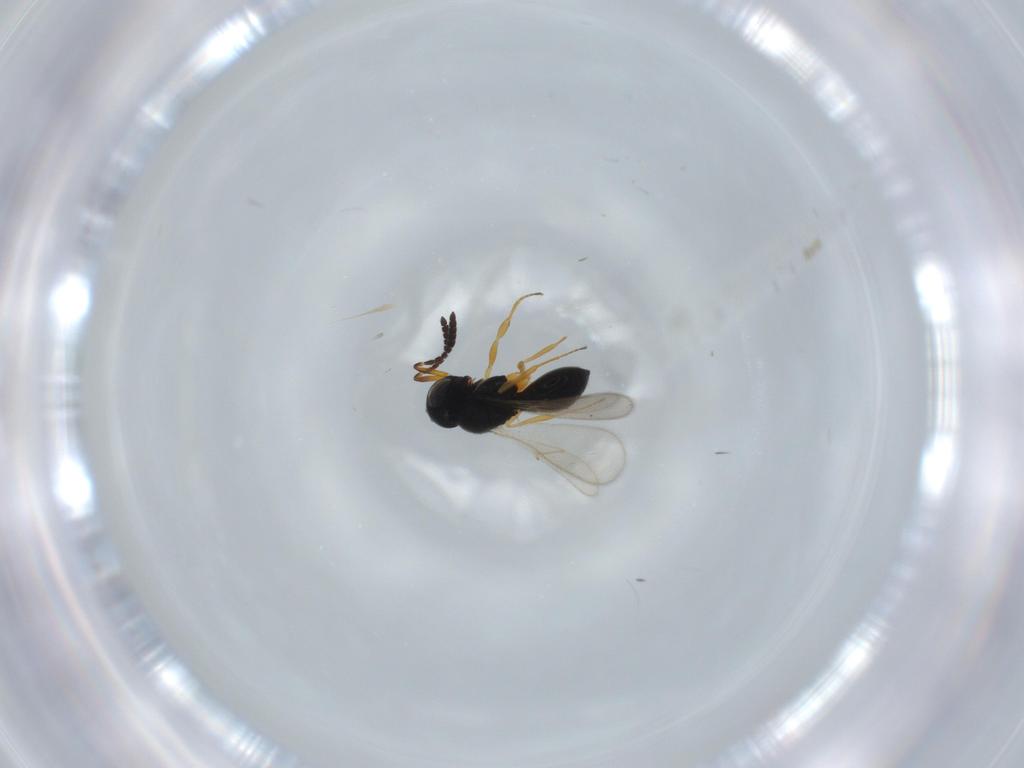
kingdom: Animalia
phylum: Arthropoda
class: Insecta
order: Hymenoptera
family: Scelionidae
